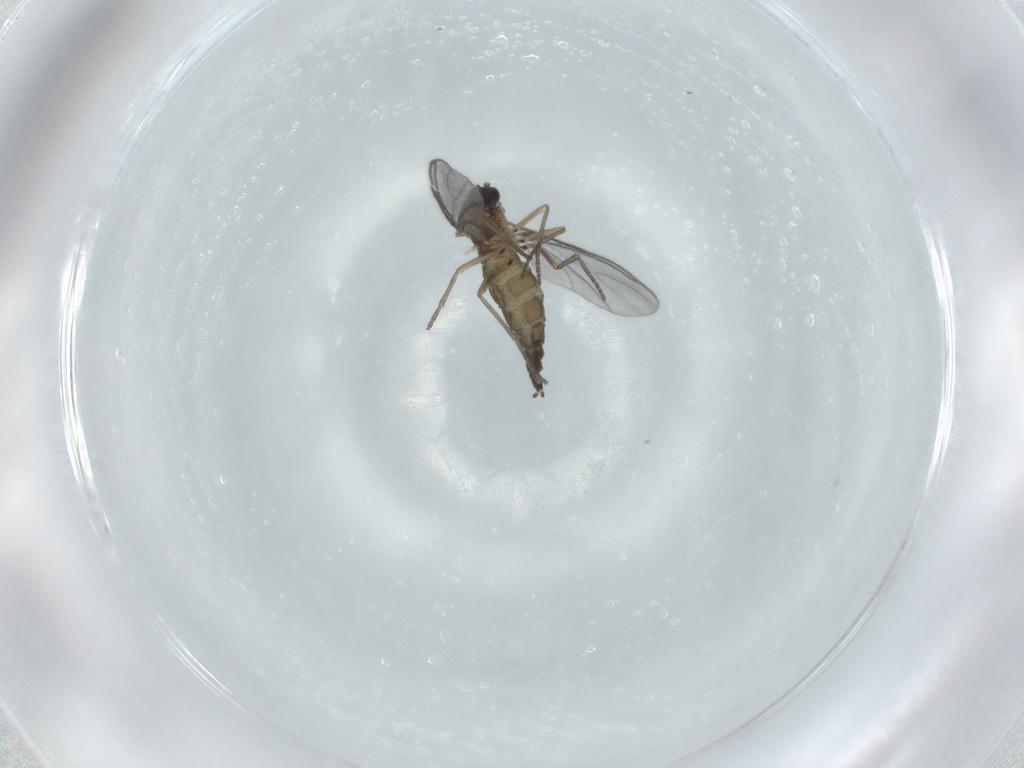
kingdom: Animalia
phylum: Arthropoda
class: Insecta
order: Diptera
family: Sciaridae
